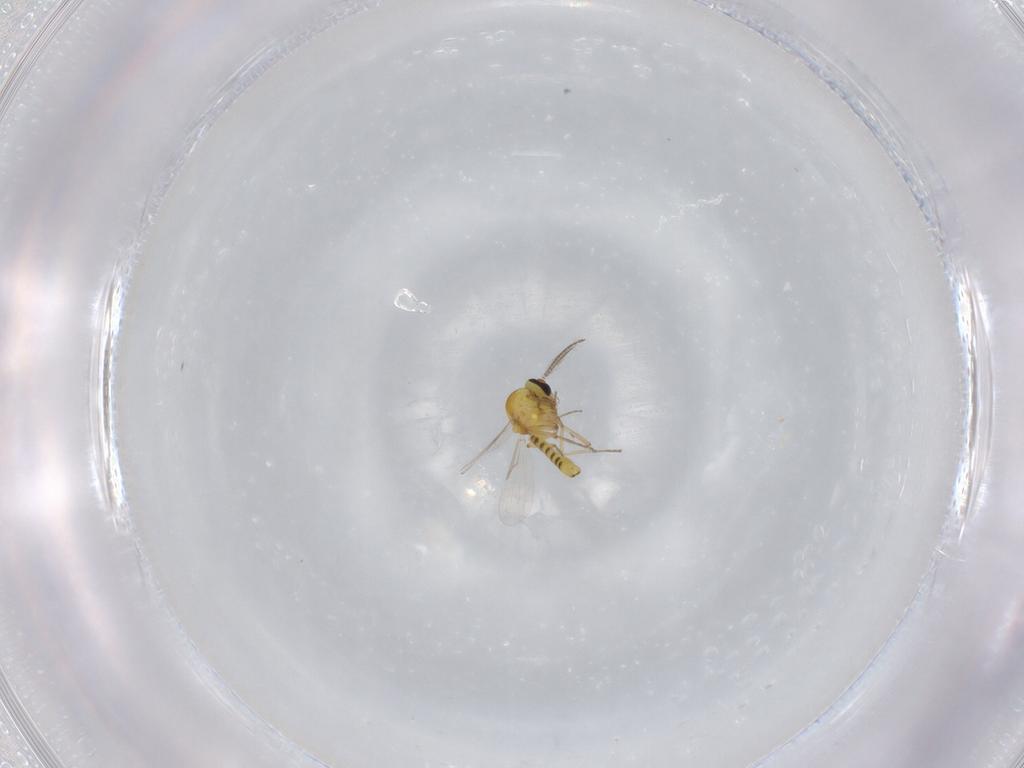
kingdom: Animalia
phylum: Arthropoda
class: Insecta
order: Diptera
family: Ceratopogonidae
